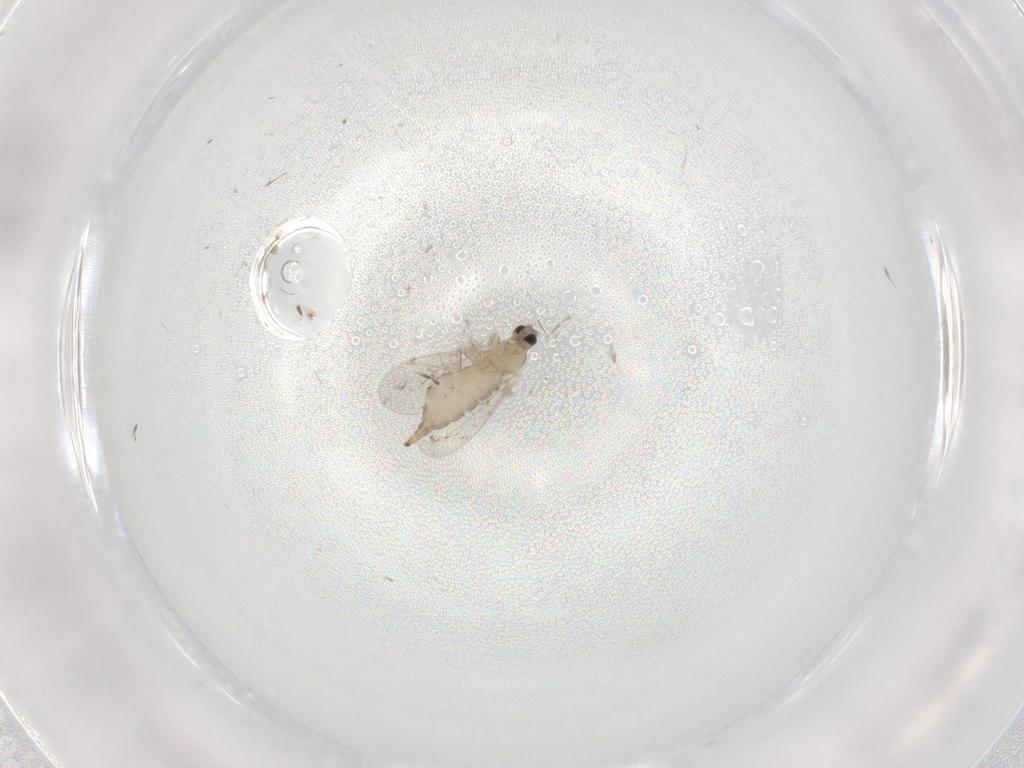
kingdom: Animalia
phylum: Arthropoda
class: Insecta
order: Diptera
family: Cecidomyiidae
